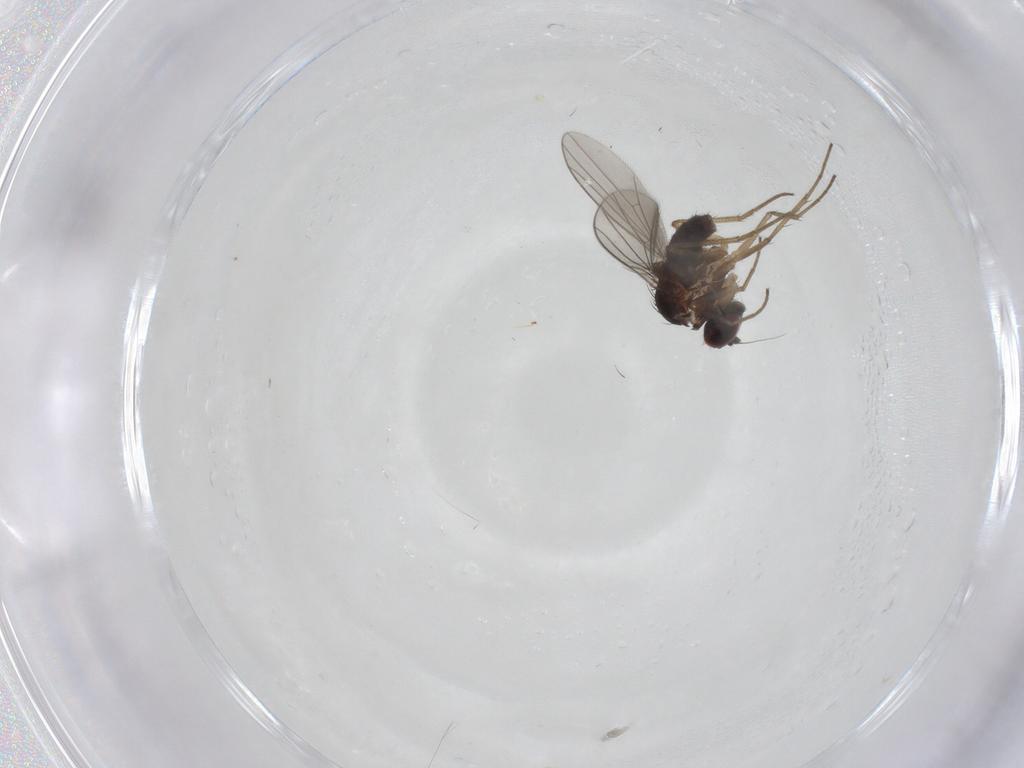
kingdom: Animalia
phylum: Arthropoda
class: Insecta
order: Diptera
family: Dolichopodidae
